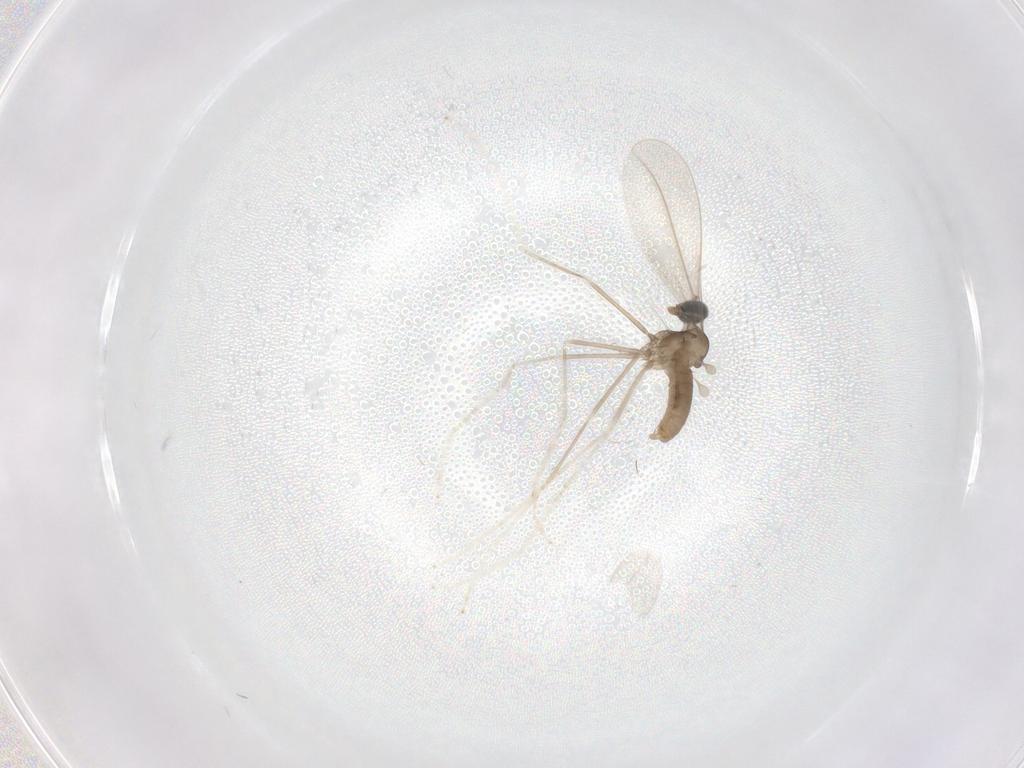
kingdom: Animalia
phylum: Arthropoda
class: Insecta
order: Diptera
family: Cecidomyiidae
